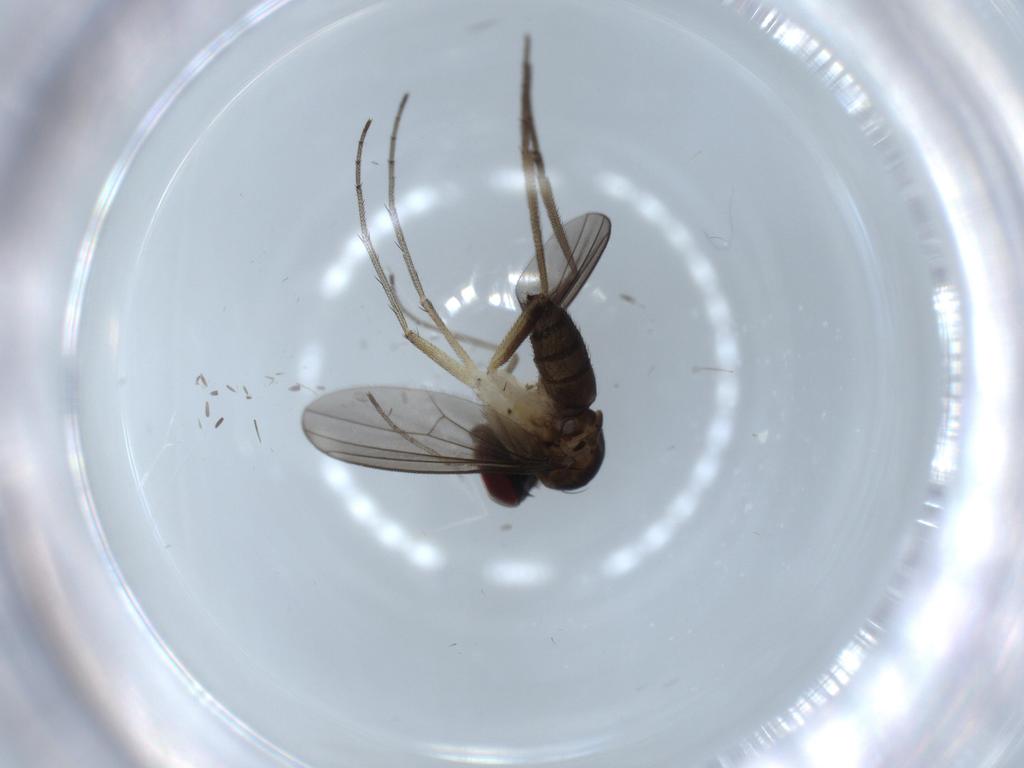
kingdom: Animalia
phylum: Arthropoda
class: Insecta
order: Diptera
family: Dolichopodidae
